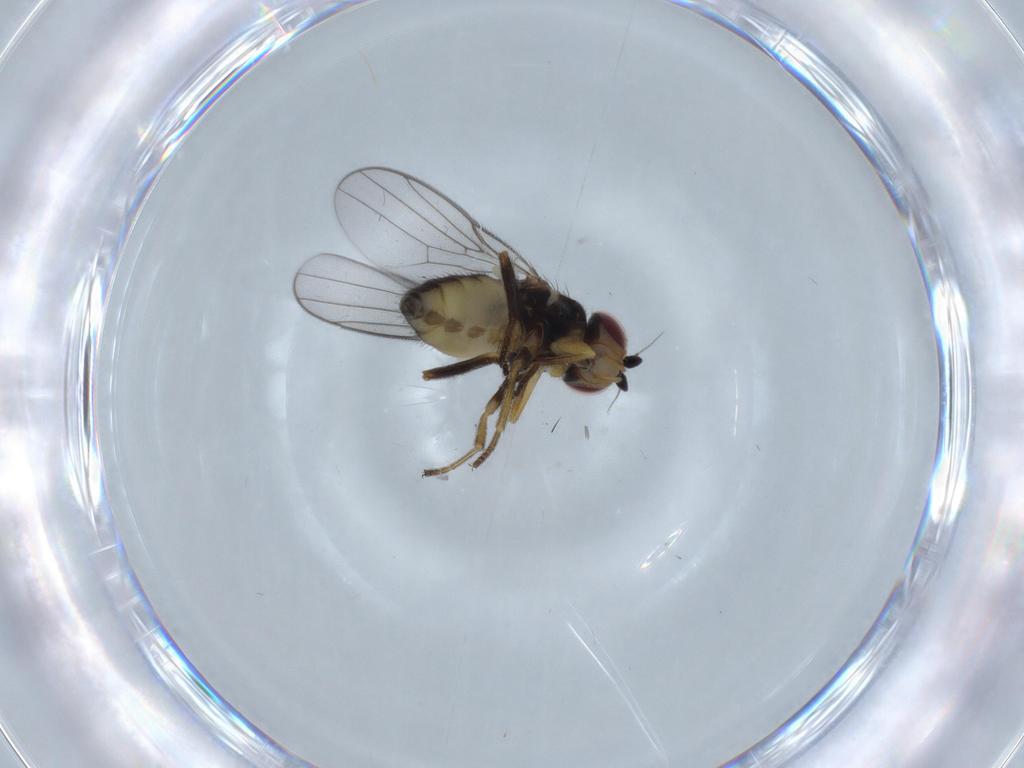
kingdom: Animalia
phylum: Arthropoda
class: Insecta
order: Diptera
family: Chloropidae
